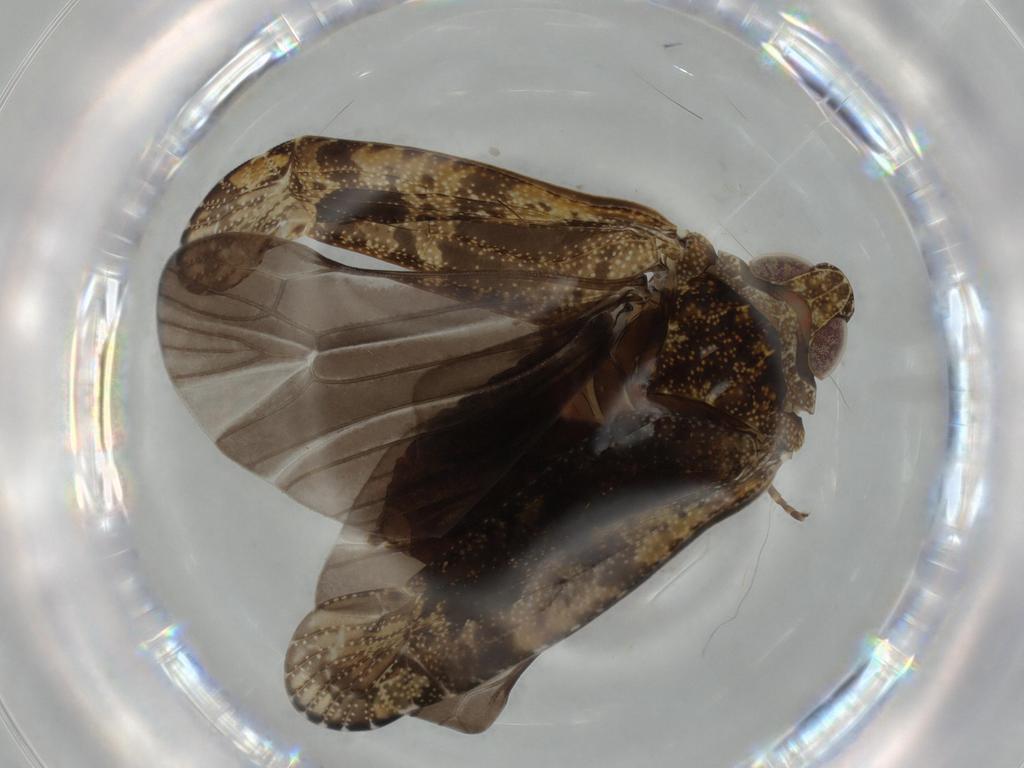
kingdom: Animalia
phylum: Arthropoda
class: Insecta
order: Hemiptera
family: Achilidae
